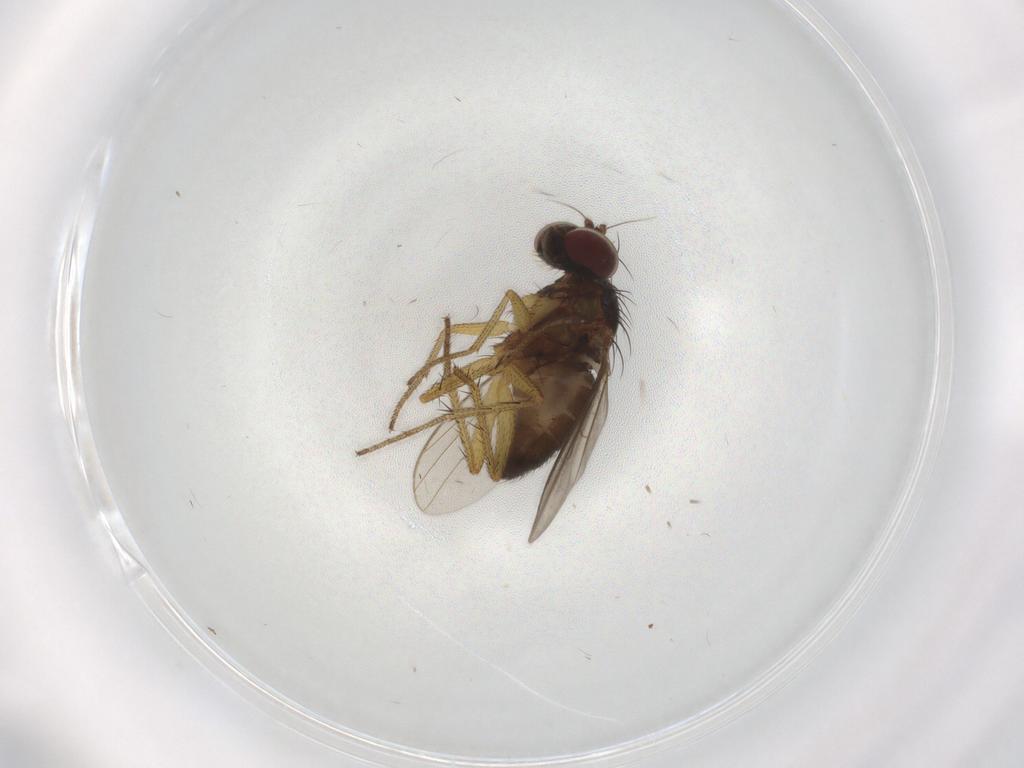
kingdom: Animalia
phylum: Arthropoda
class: Insecta
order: Diptera
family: Dolichopodidae
